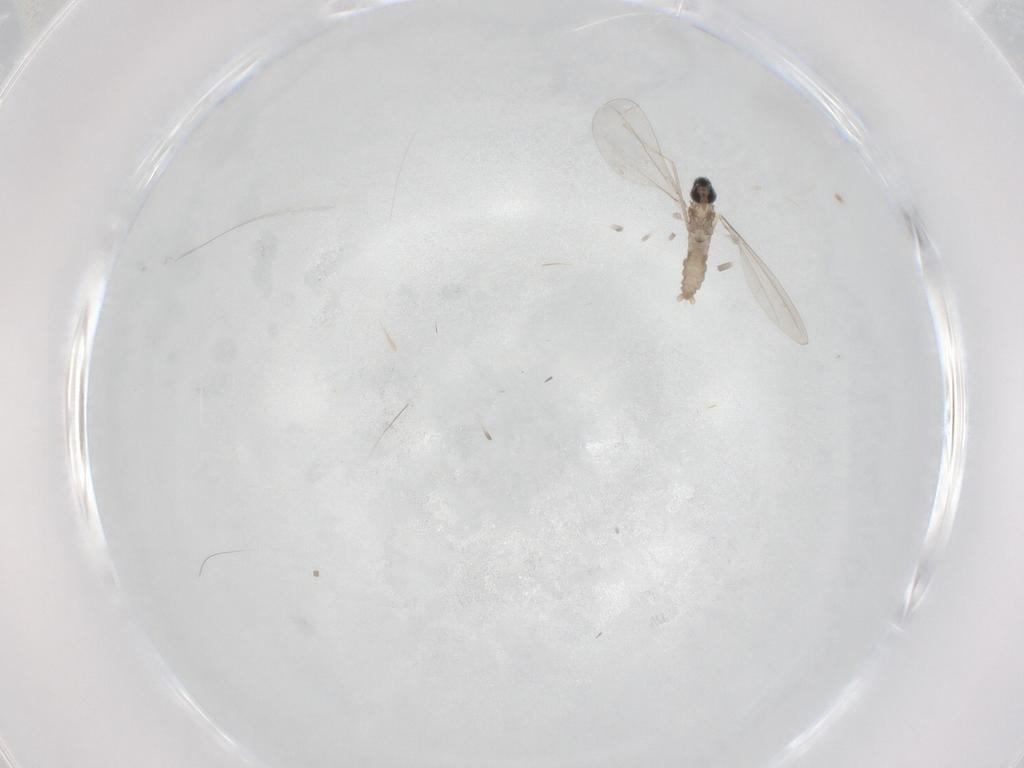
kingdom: Animalia
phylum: Arthropoda
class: Insecta
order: Diptera
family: Cecidomyiidae
